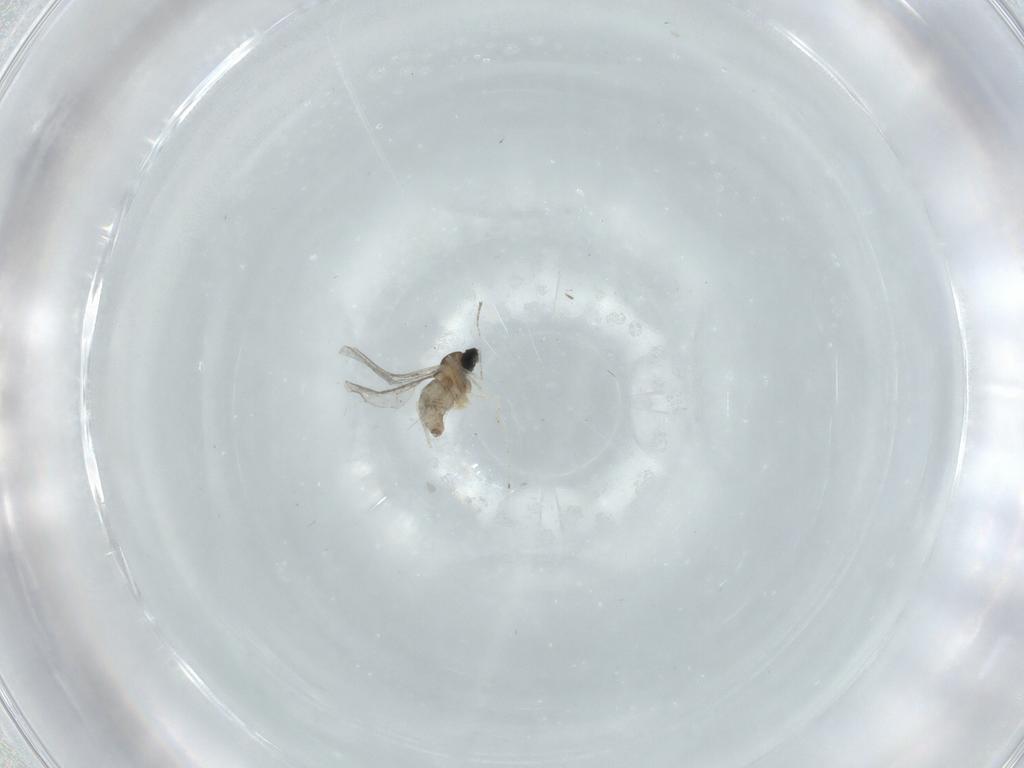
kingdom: Animalia
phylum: Arthropoda
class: Insecta
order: Diptera
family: Cecidomyiidae
